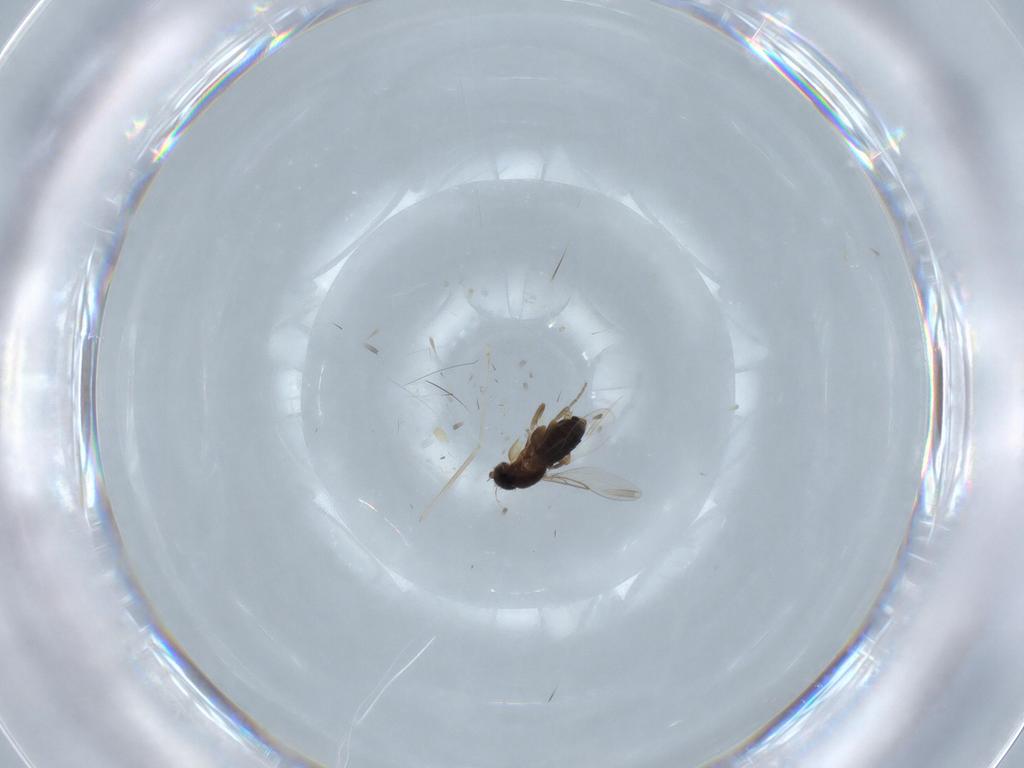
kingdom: Animalia
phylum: Arthropoda
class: Insecta
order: Diptera
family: Phoridae
